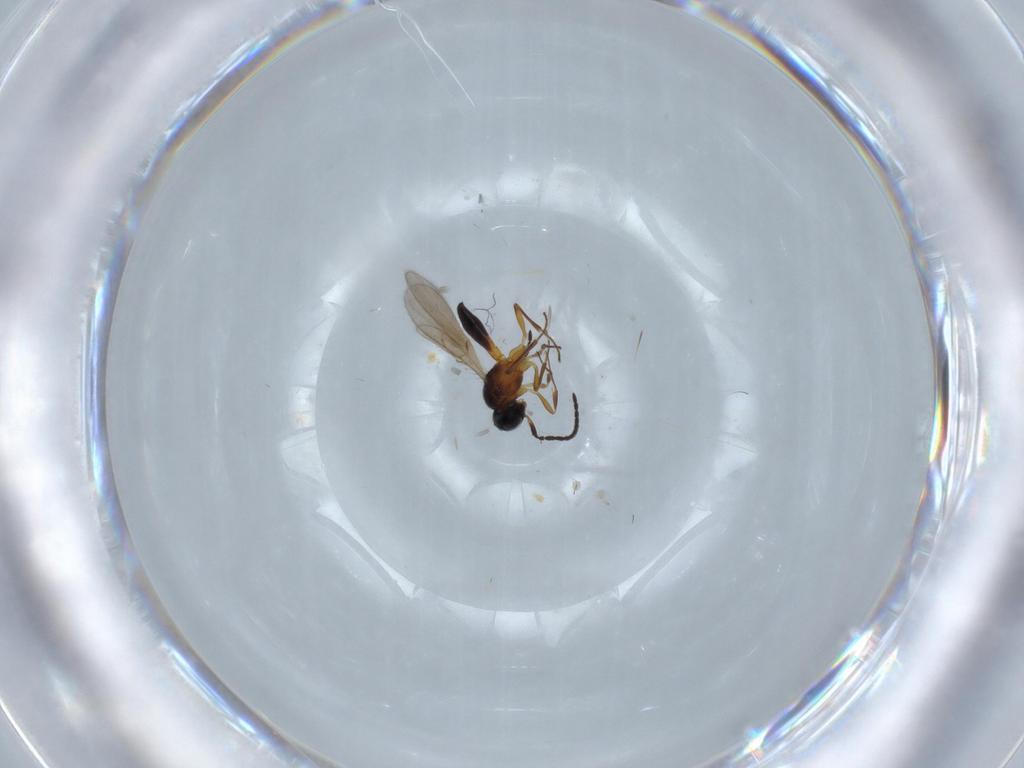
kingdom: Animalia
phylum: Arthropoda
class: Insecta
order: Hymenoptera
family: Scelionidae
